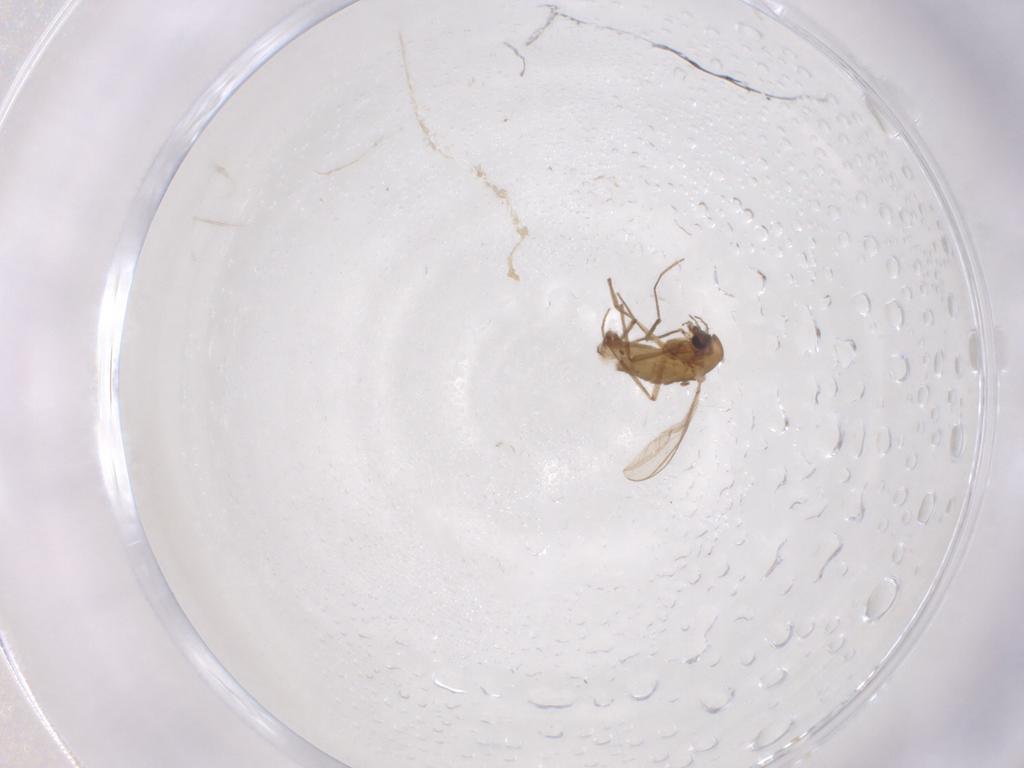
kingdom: Animalia
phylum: Arthropoda
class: Insecta
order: Diptera
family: Chironomidae
